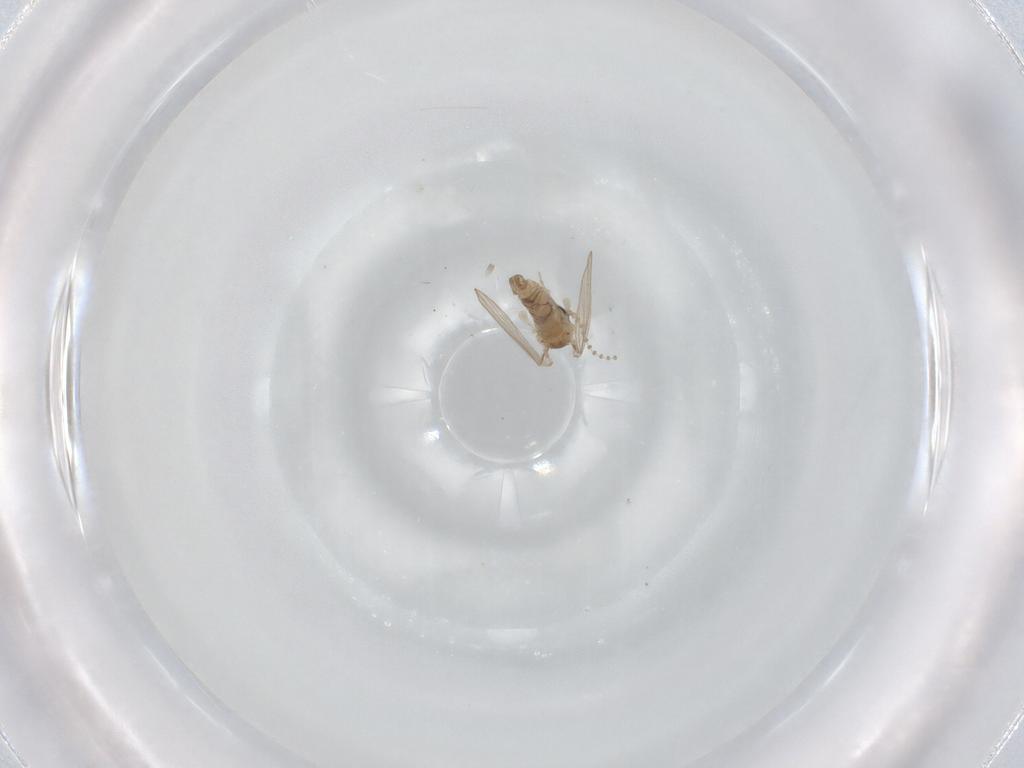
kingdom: Animalia
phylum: Arthropoda
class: Insecta
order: Diptera
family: Psychodidae
